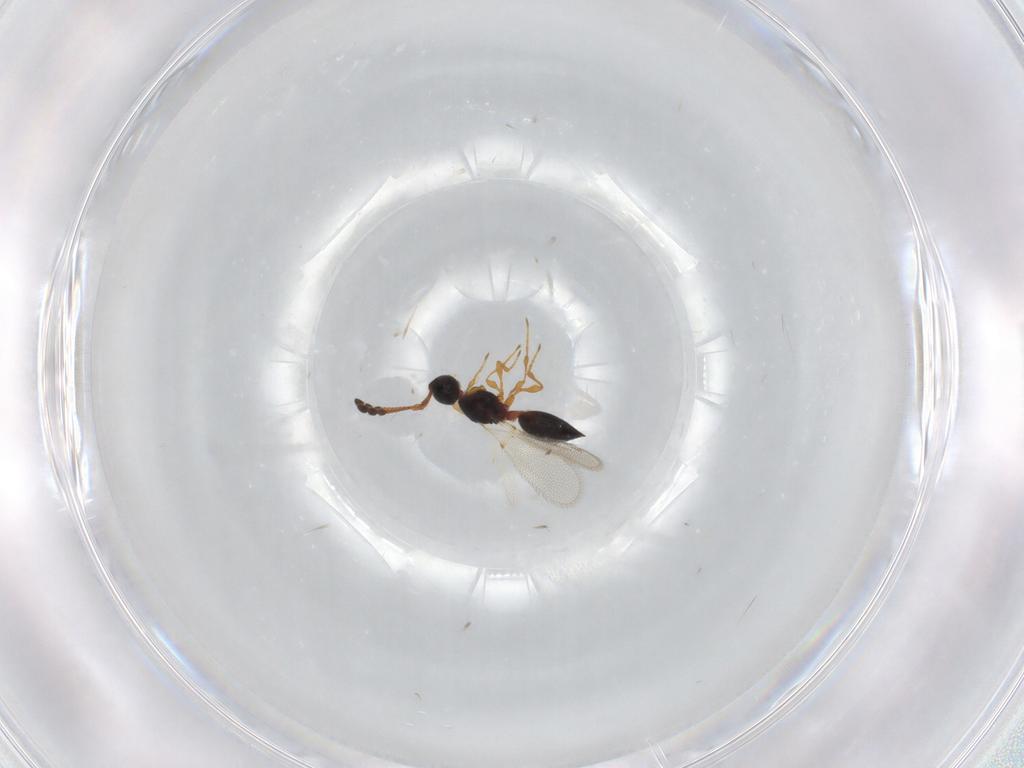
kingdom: Animalia
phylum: Arthropoda
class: Insecta
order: Hymenoptera
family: Diapriidae
